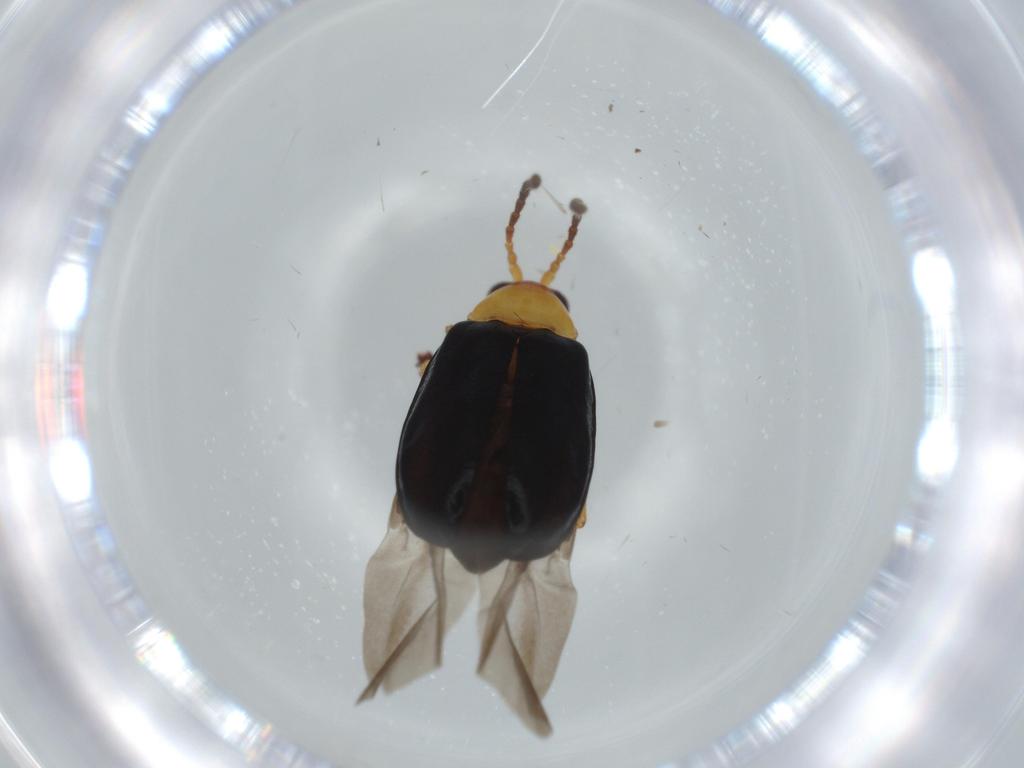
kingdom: Animalia
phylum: Arthropoda
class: Insecta
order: Coleoptera
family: Chrysomelidae
